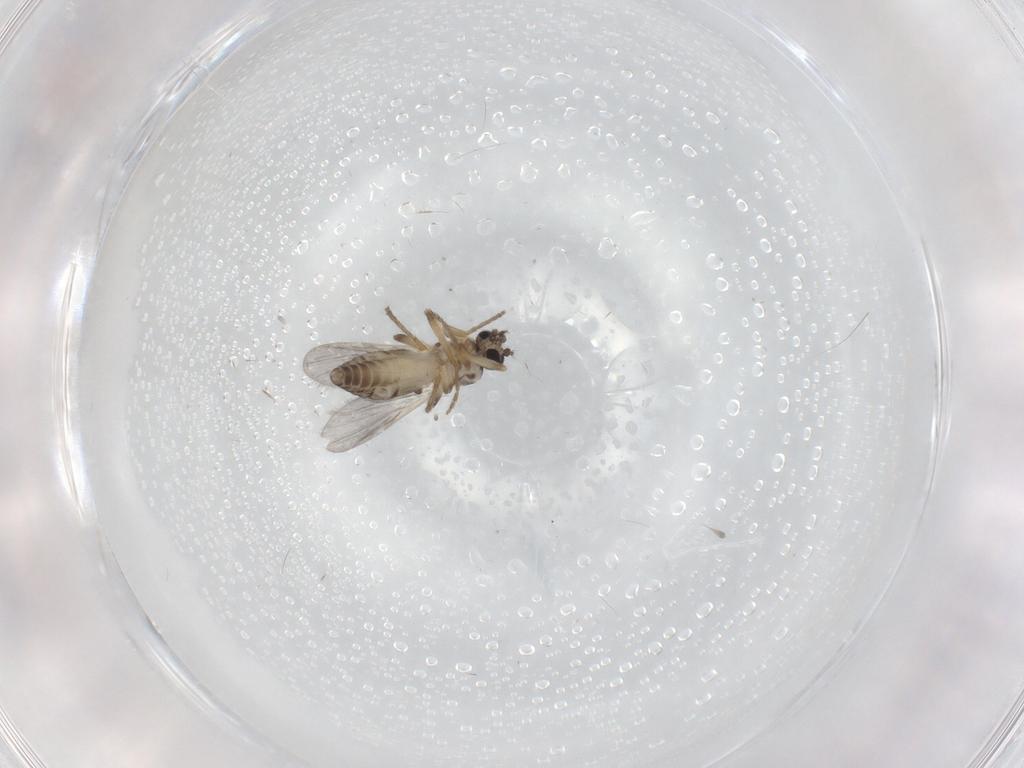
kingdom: Animalia
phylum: Arthropoda
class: Insecta
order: Diptera
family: Ceratopogonidae
